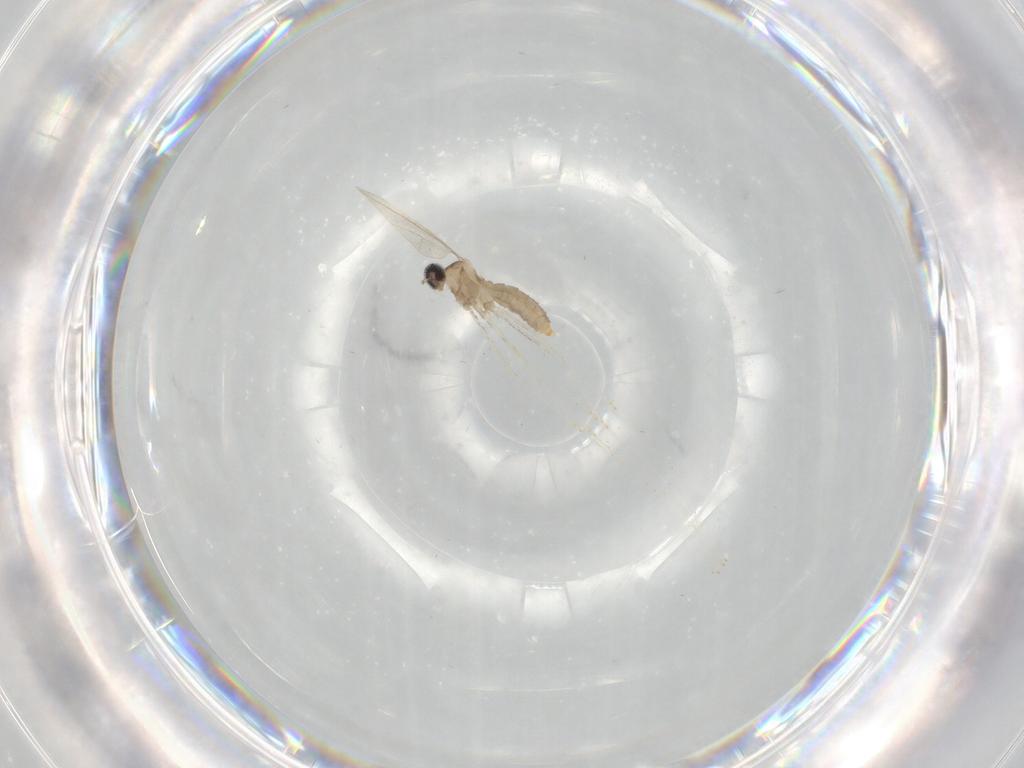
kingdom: Animalia
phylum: Arthropoda
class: Insecta
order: Diptera
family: Cecidomyiidae
